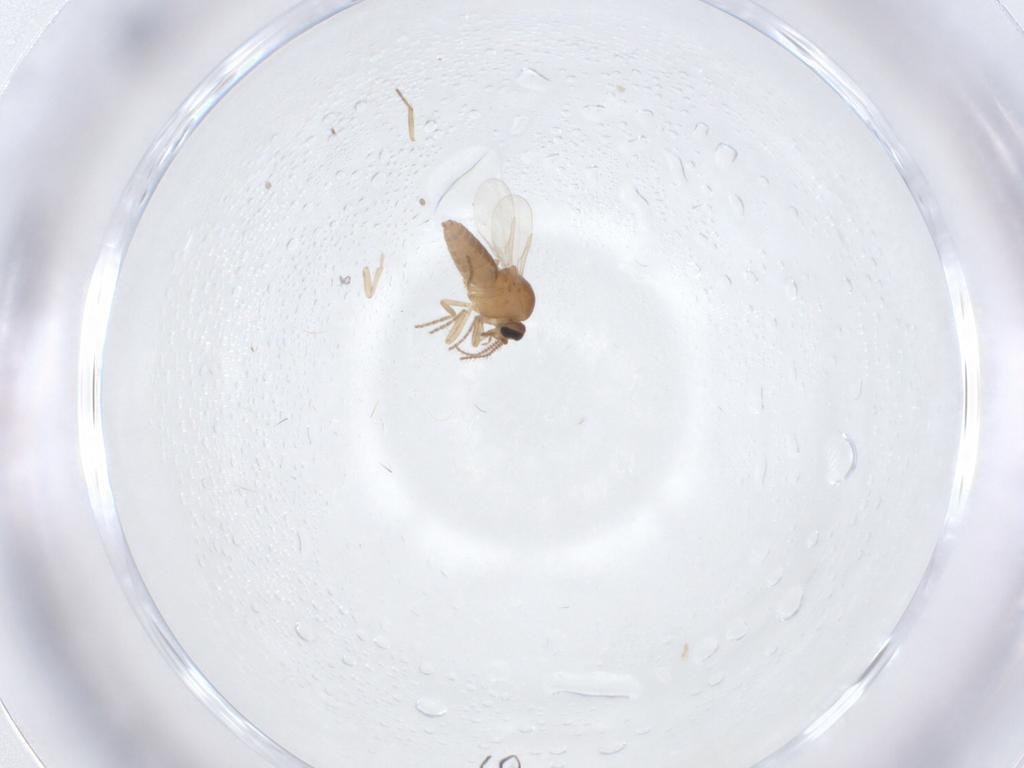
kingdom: Animalia
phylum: Arthropoda
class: Insecta
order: Diptera
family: Ceratopogonidae
